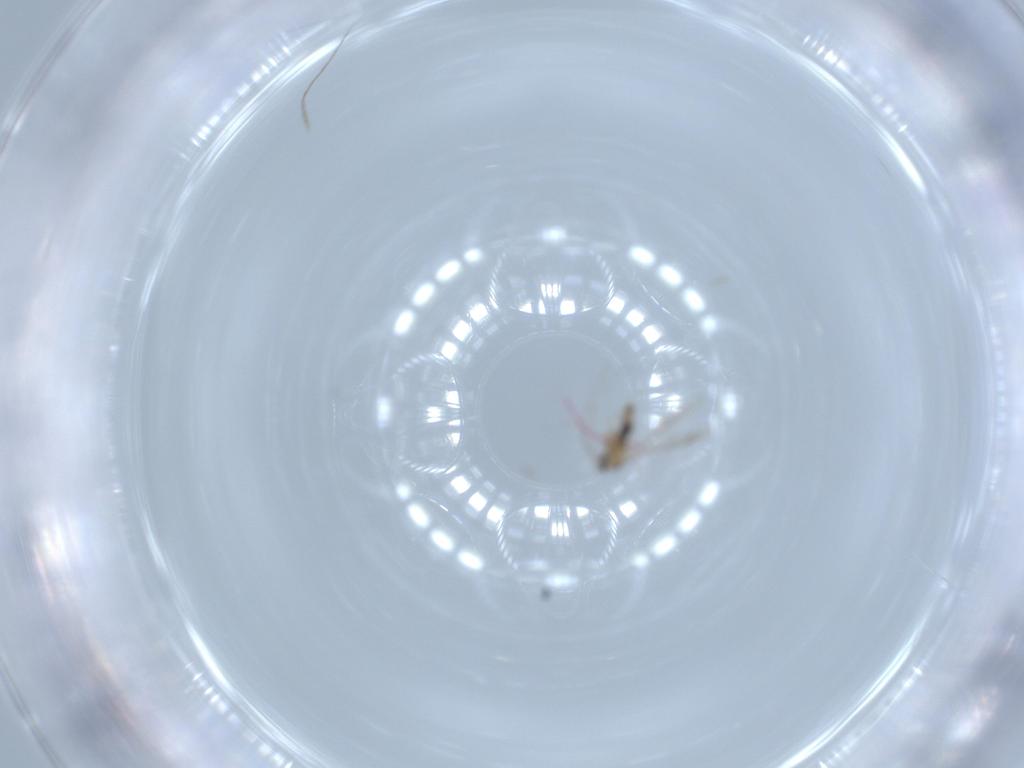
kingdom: Animalia
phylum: Arthropoda
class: Insecta
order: Diptera
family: Cecidomyiidae
